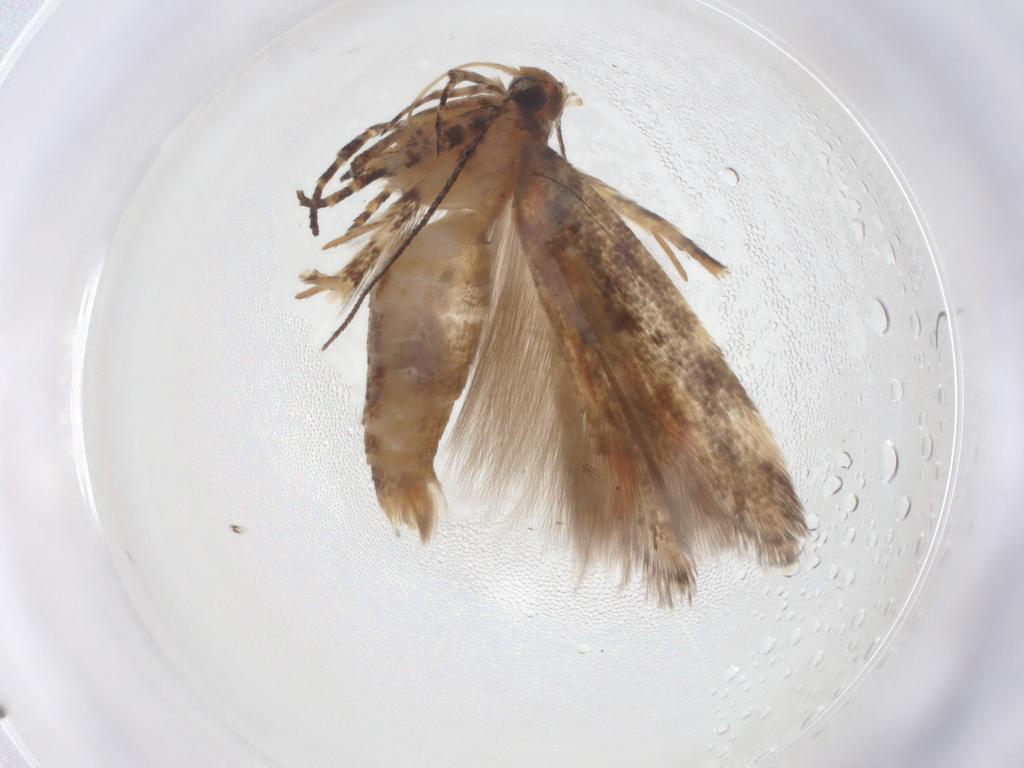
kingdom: Animalia
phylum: Arthropoda
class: Insecta
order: Lepidoptera
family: Gelechiidae
